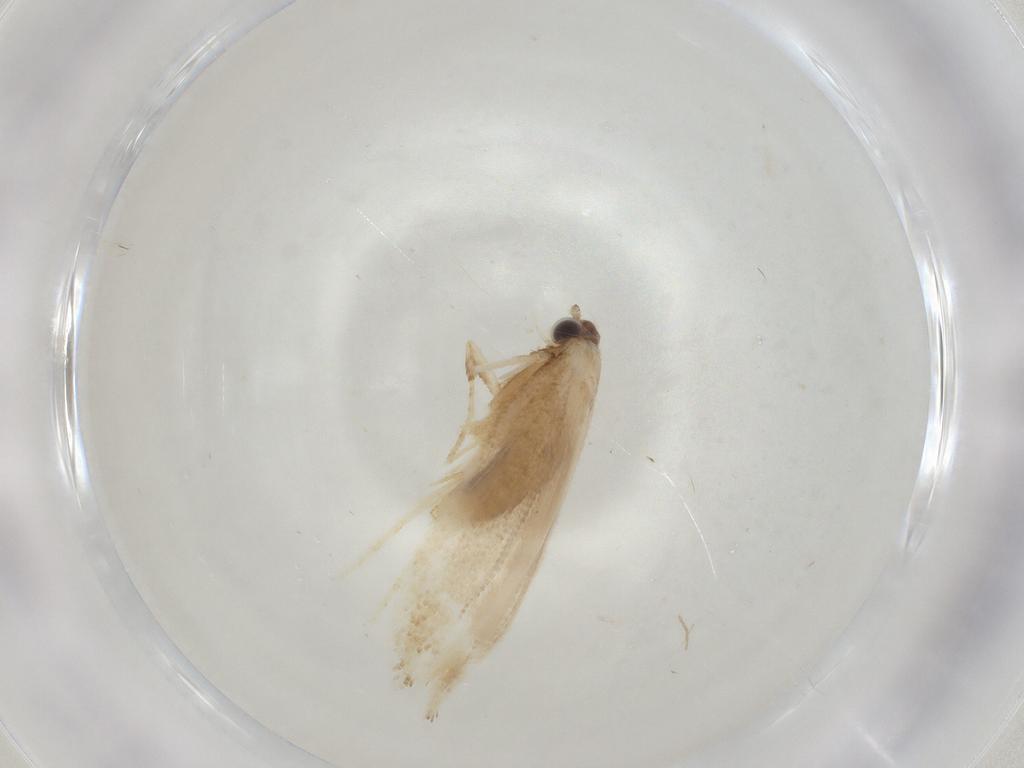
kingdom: Animalia
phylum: Arthropoda
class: Insecta
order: Lepidoptera
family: Nepticulidae
